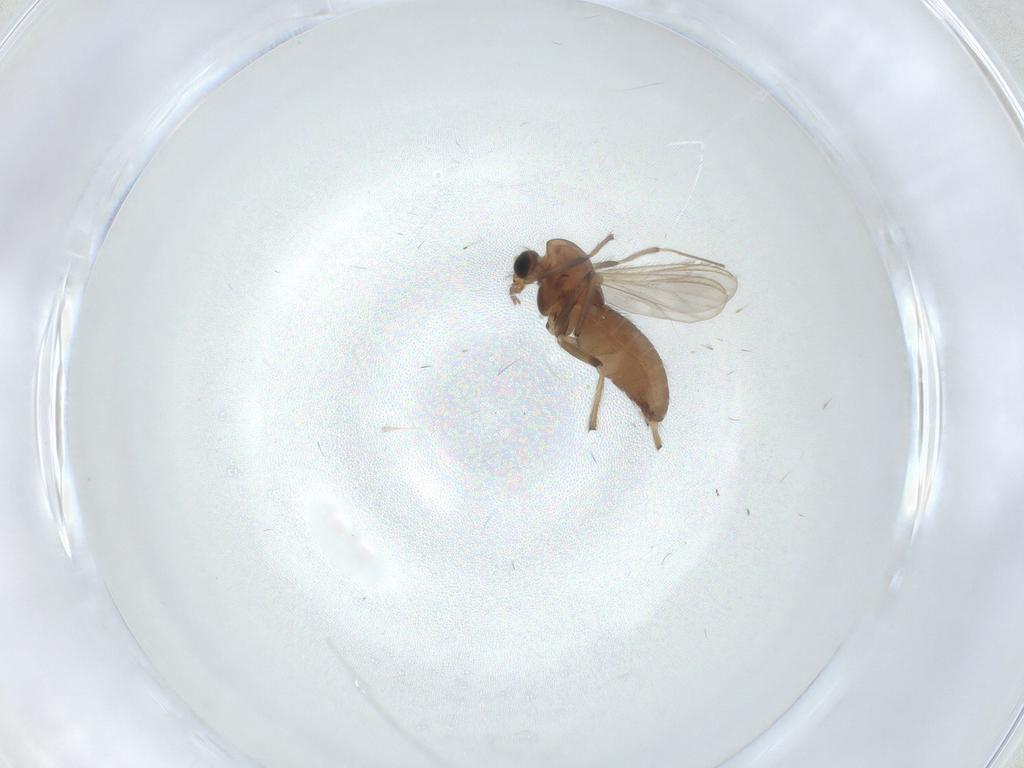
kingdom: Animalia
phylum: Arthropoda
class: Insecta
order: Diptera
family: Chironomidae
